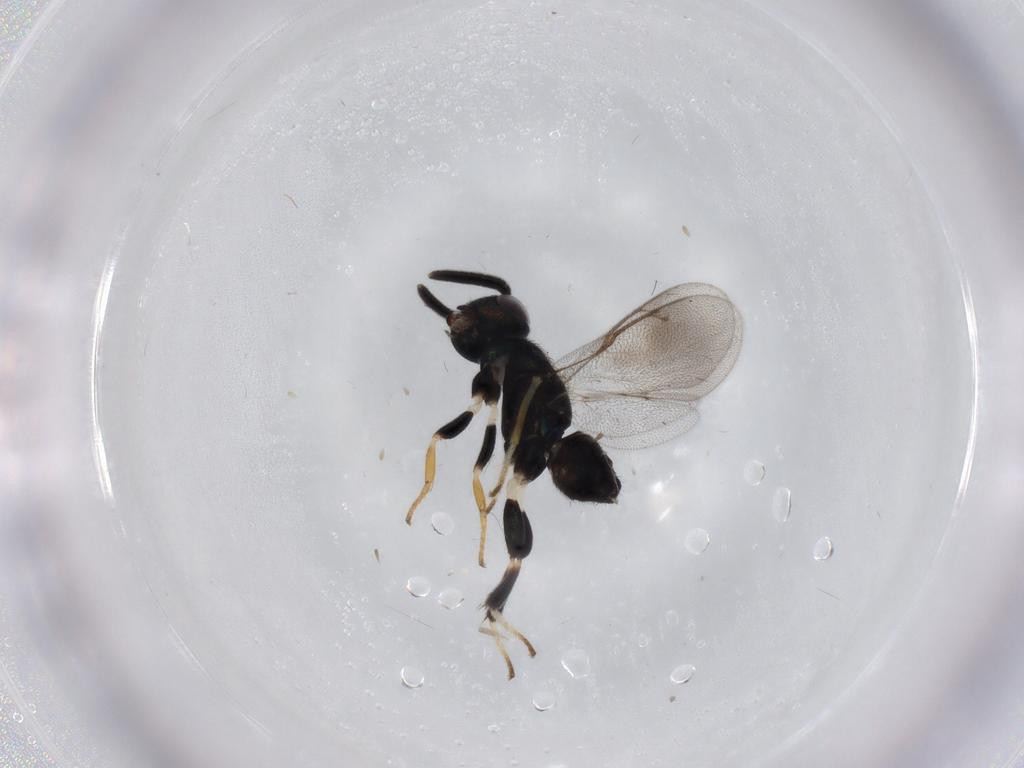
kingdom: Animalia
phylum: Arthropoda
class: Insecta
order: Hymenoptera
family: Eupelmidae
